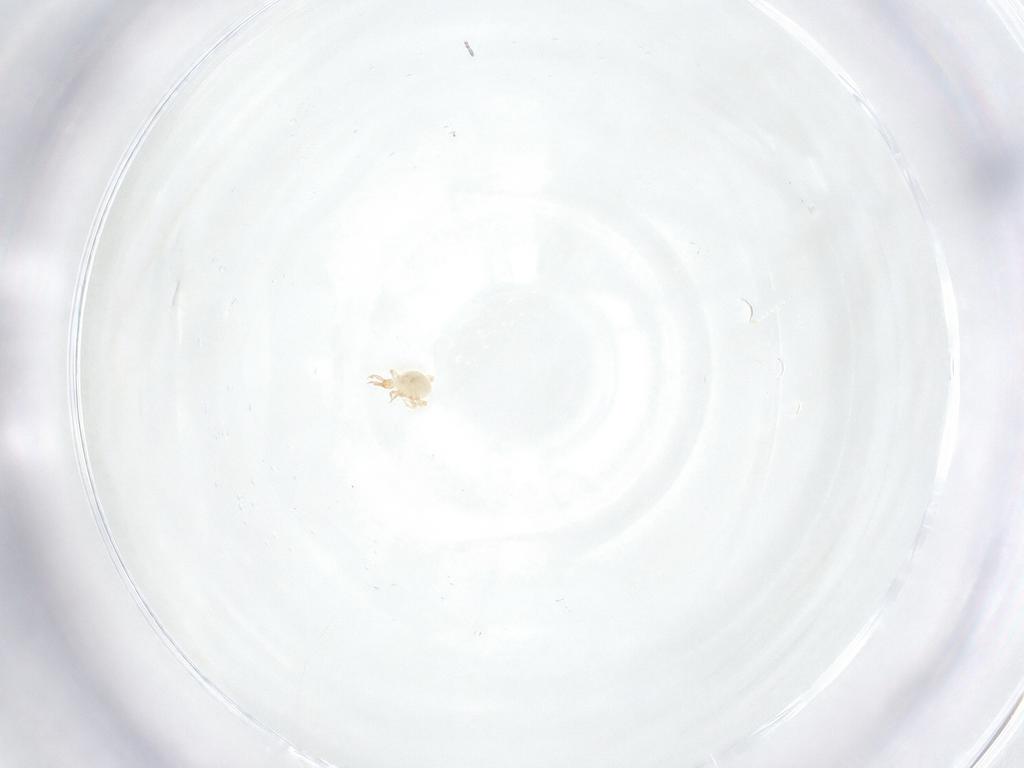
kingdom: Animalia
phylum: Arthropoda
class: Arachnida
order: Trombidiformes
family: Cunaxidae
